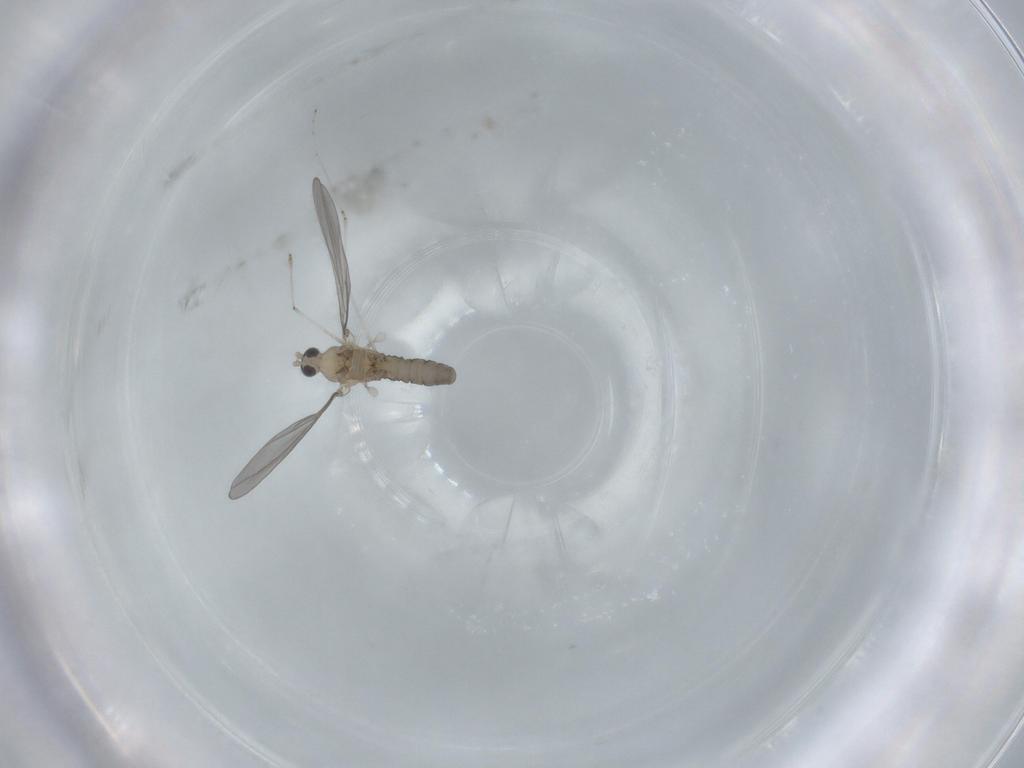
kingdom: Animalia
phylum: Arthropoda
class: Insecta
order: Diptera
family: Cecidomyiidae
